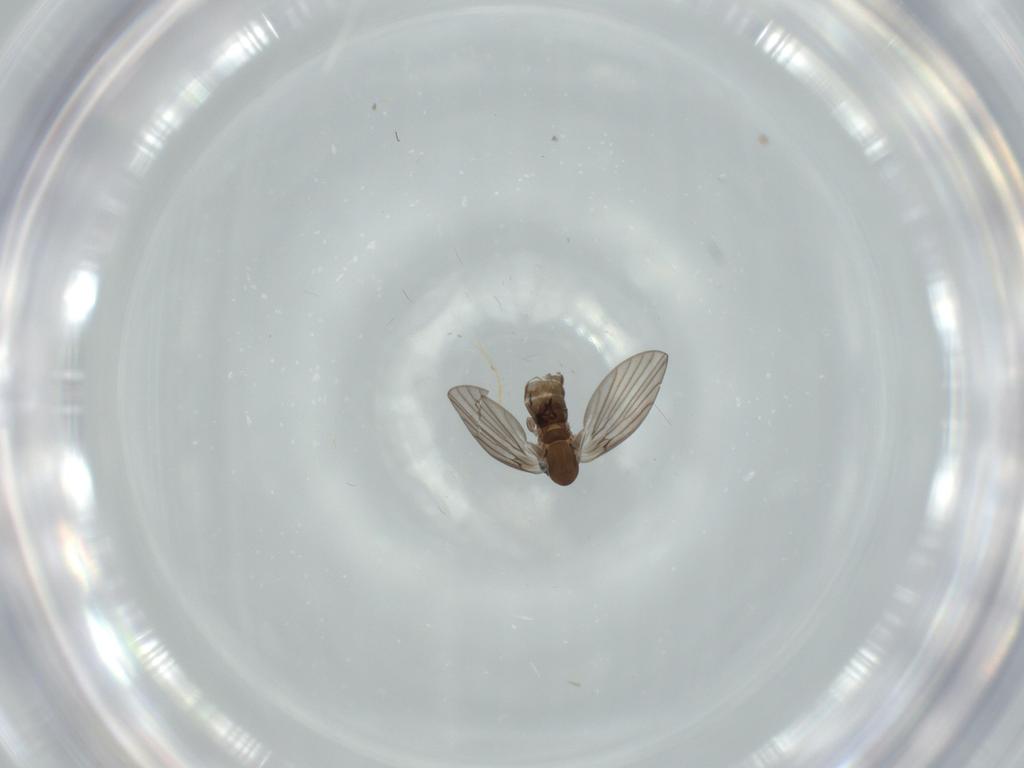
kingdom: Animalia
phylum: Arthropoda
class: Insecta
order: Diptera
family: Psychodidae
